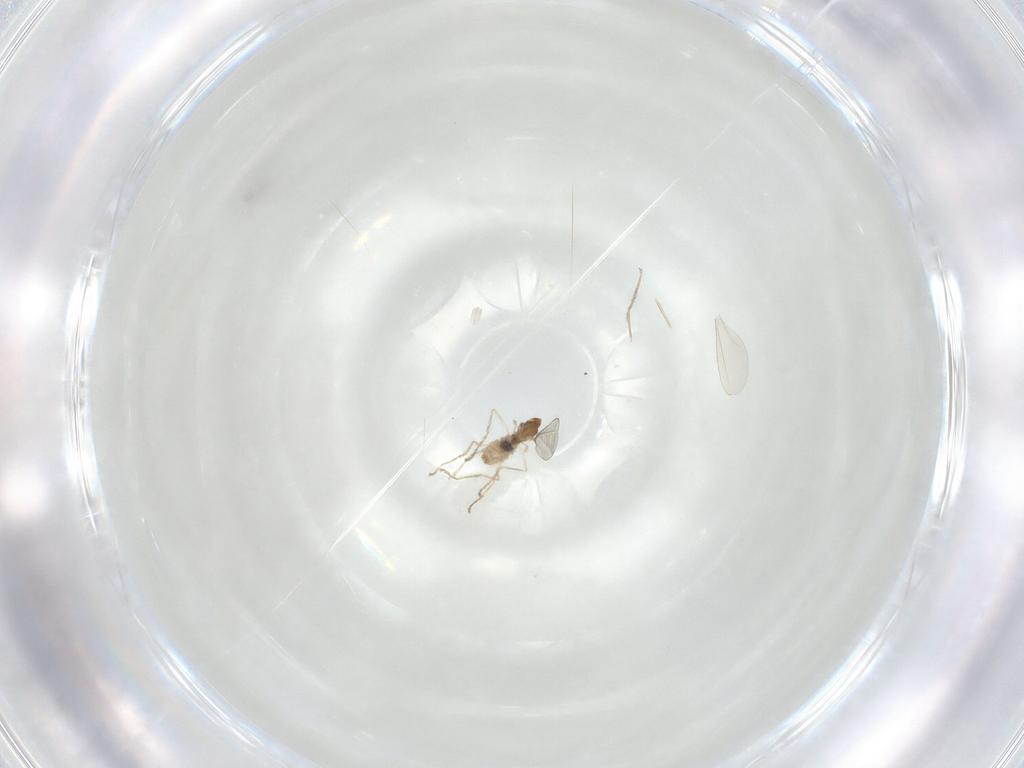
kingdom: Animalia
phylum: Arthropoda
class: Insecta
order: Diptera
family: Cecidomyiidae
